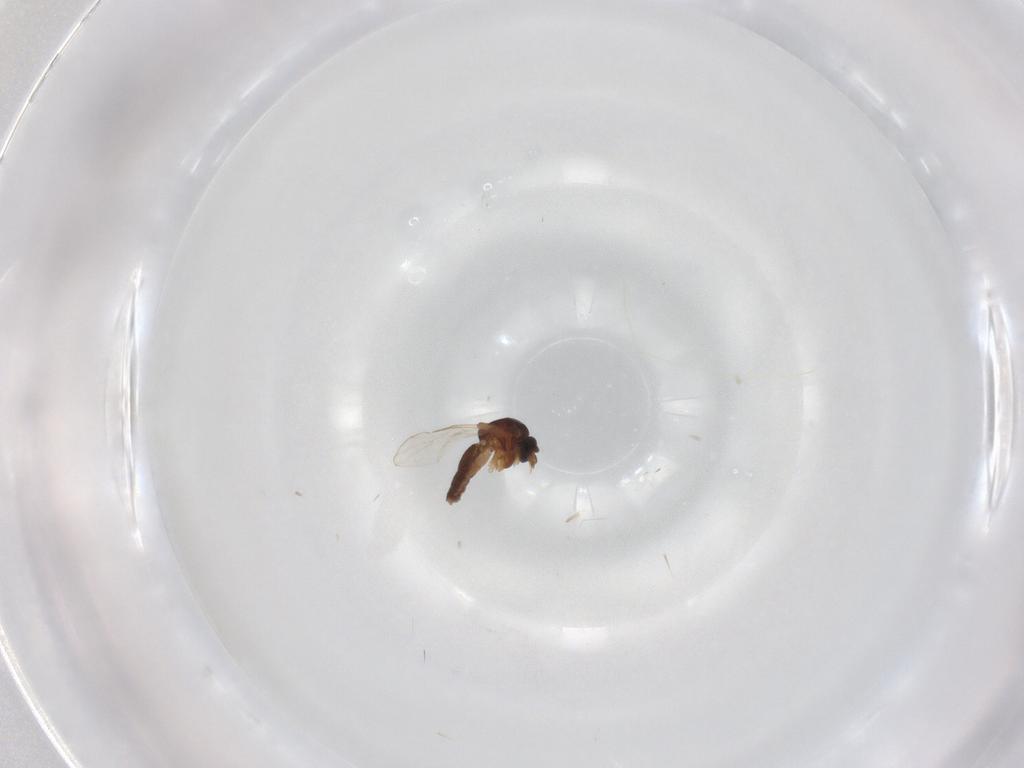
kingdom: Animalia
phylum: Arthropoda
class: Insecta
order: Diptera
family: Ceratopogonidae
